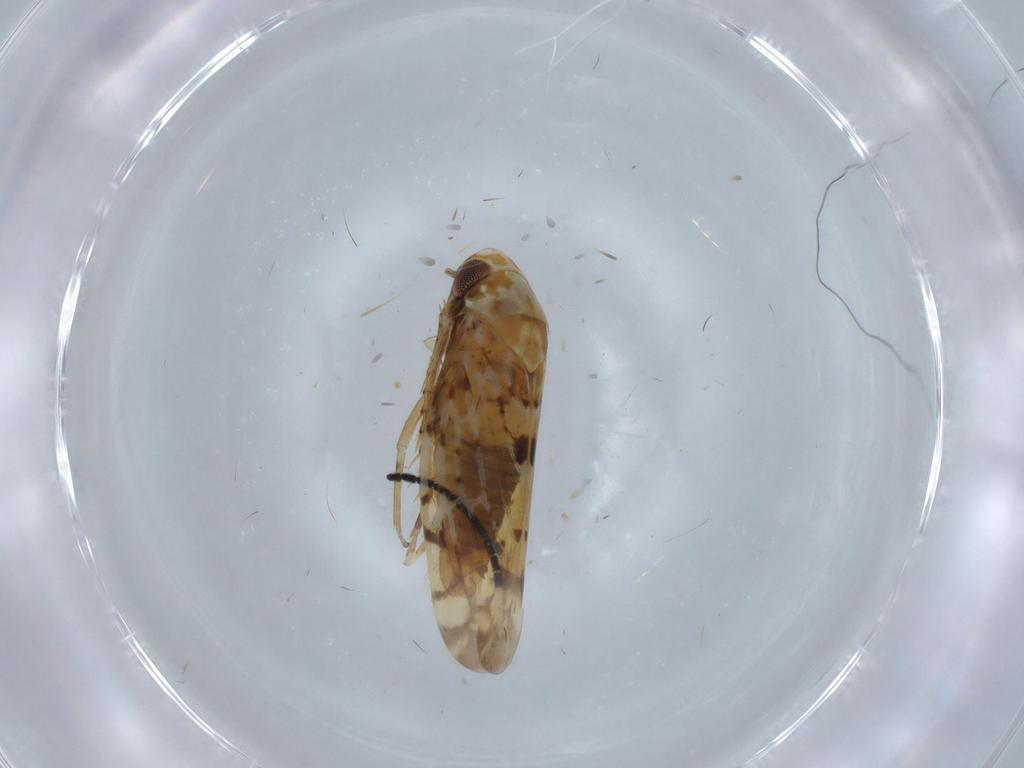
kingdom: Animalia
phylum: Arthropoda
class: Insecta
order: Hemiptera
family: Cicadellidae
